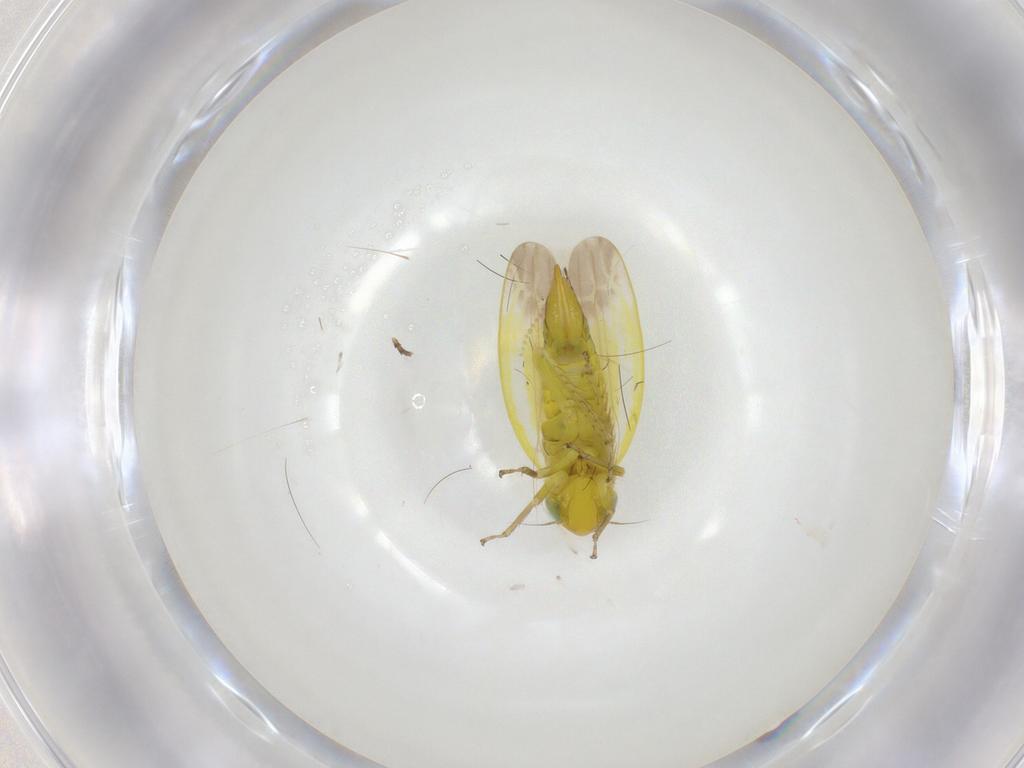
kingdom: Animalia
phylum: Arthropoda
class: Insecta
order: Hemiptera
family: Cicadellidae
